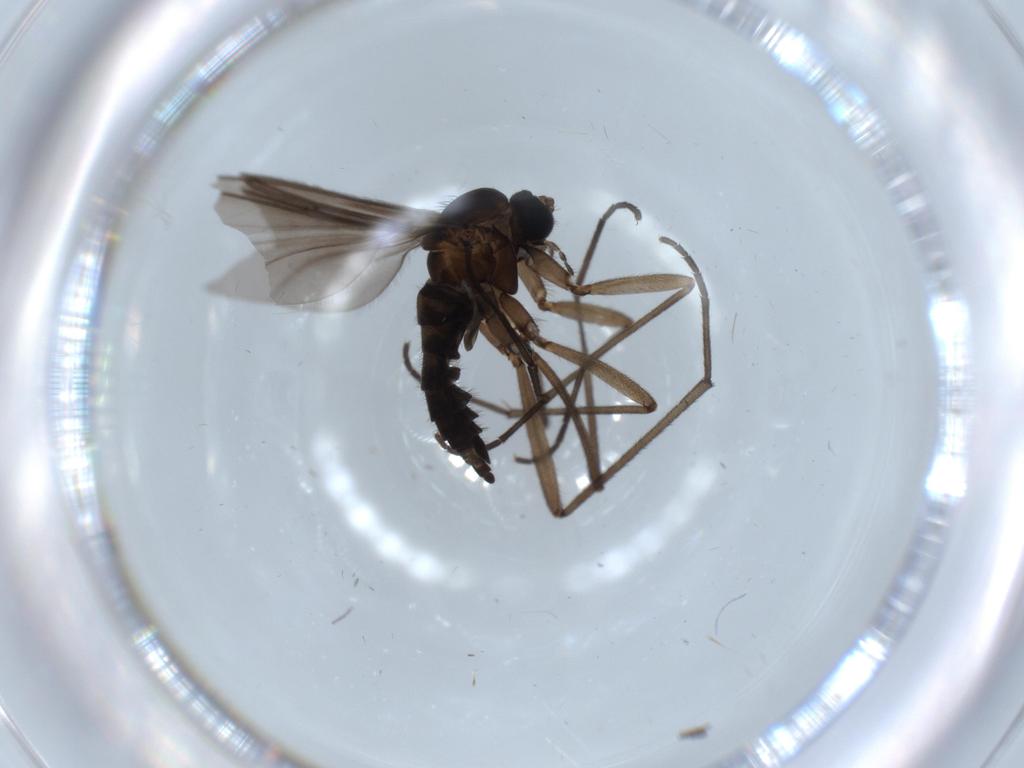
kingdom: Animalia
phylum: Arthropoda
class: Insecta
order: Diptera
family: Sciaridae
